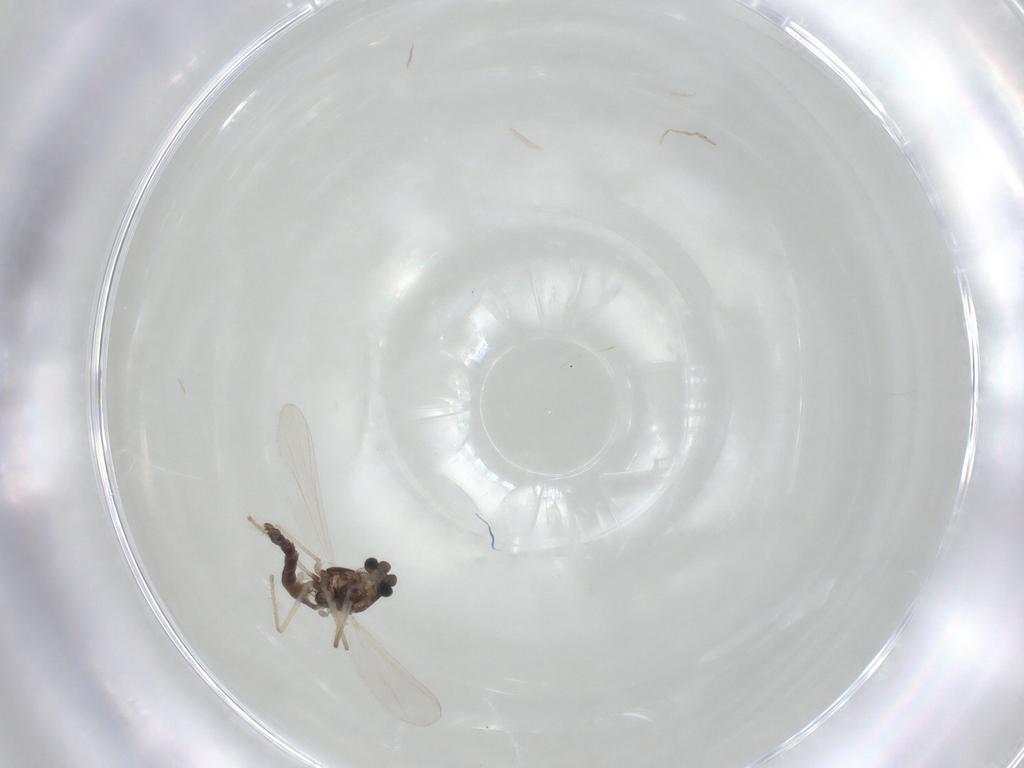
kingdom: Animalia
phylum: Arthropoda
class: Insecta
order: Diptera
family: Chironomidae
